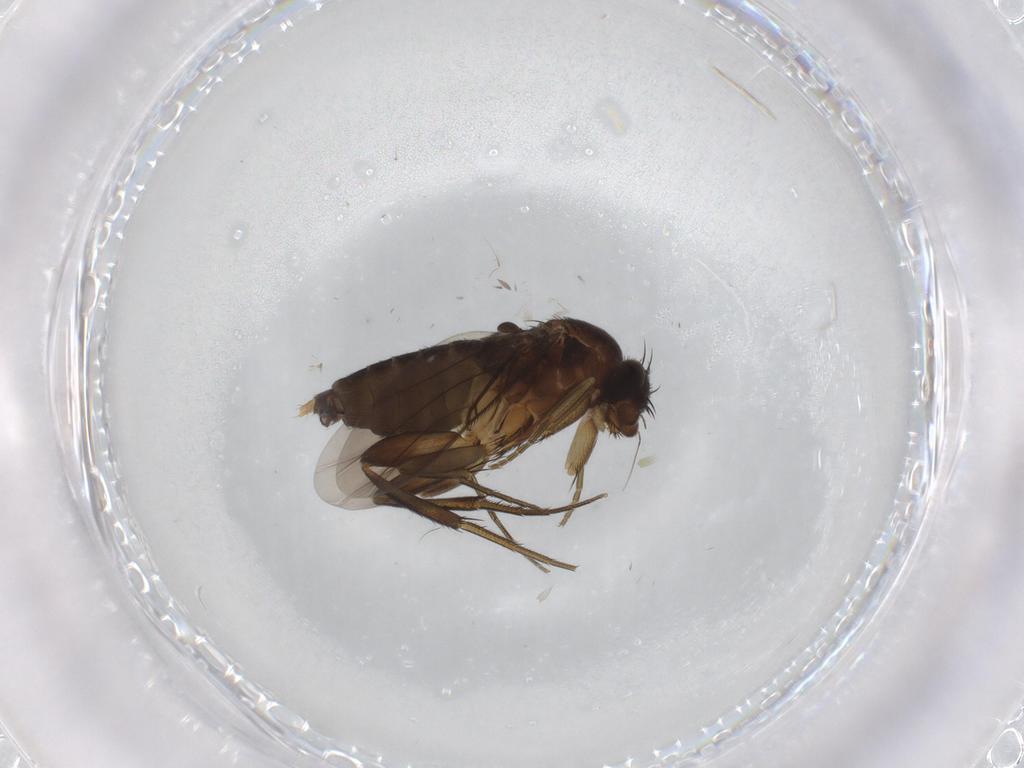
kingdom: Animalia
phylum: Arthropoda
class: Insecta
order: Diptera
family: Phoridae
